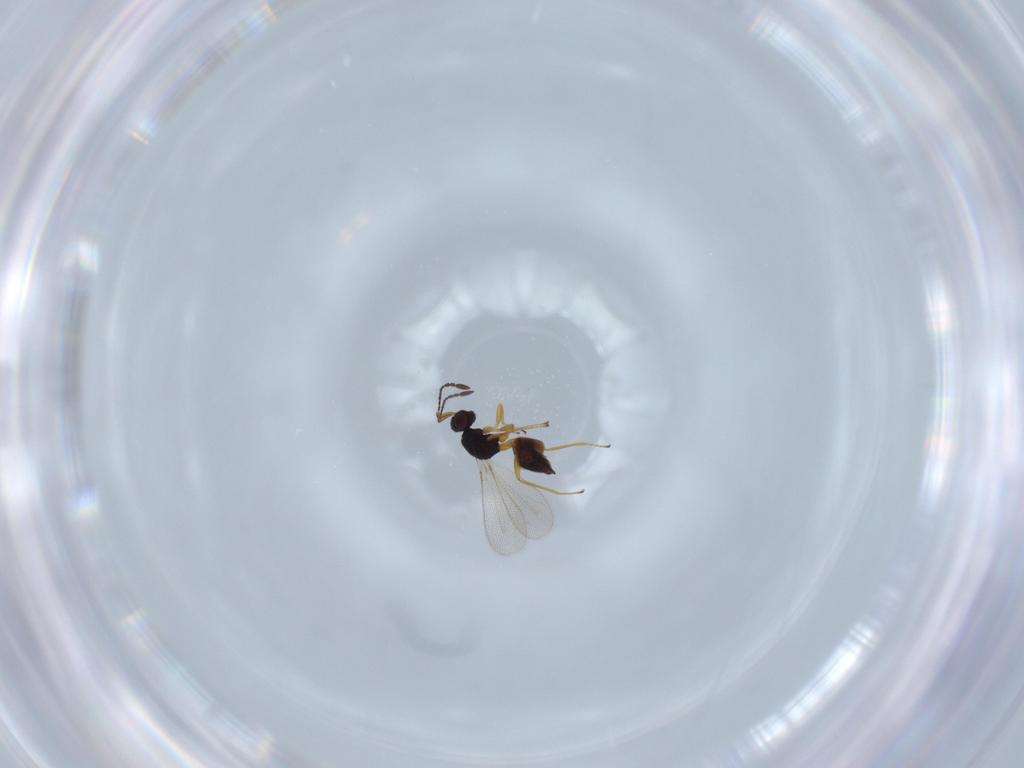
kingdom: Animalia
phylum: Arthropoda
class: Insecta
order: Hymenoptera
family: Mymaridae
